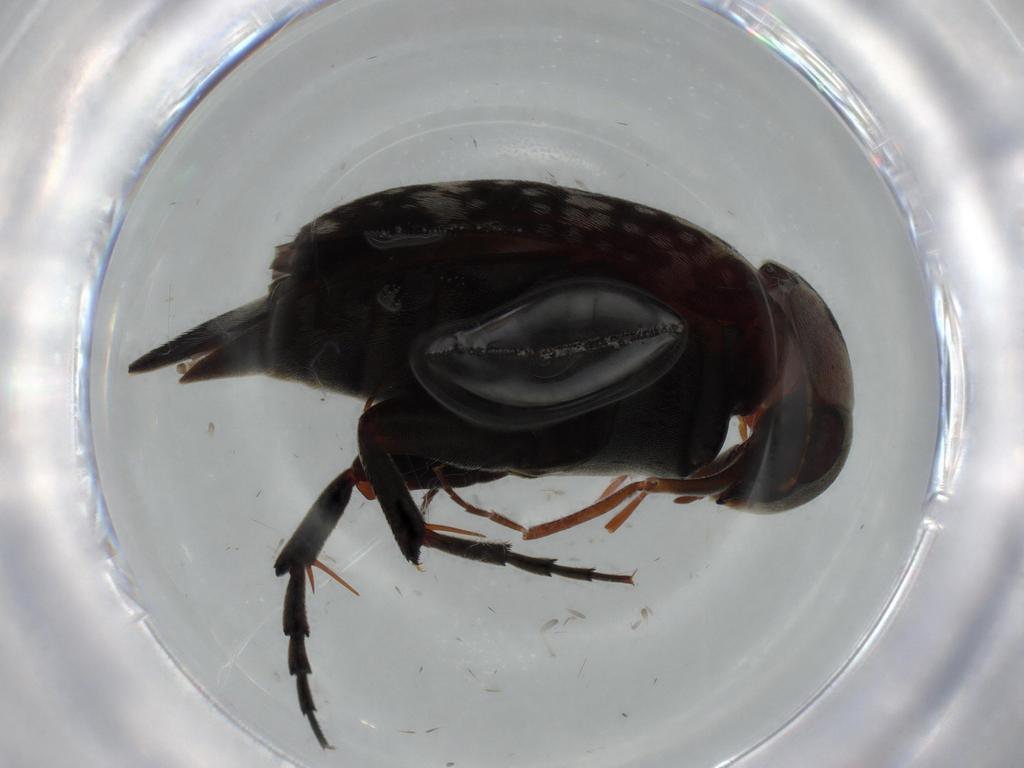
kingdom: Animalia
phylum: Arthropoda
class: Insecta
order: Coleoptera
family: Mordellidae
